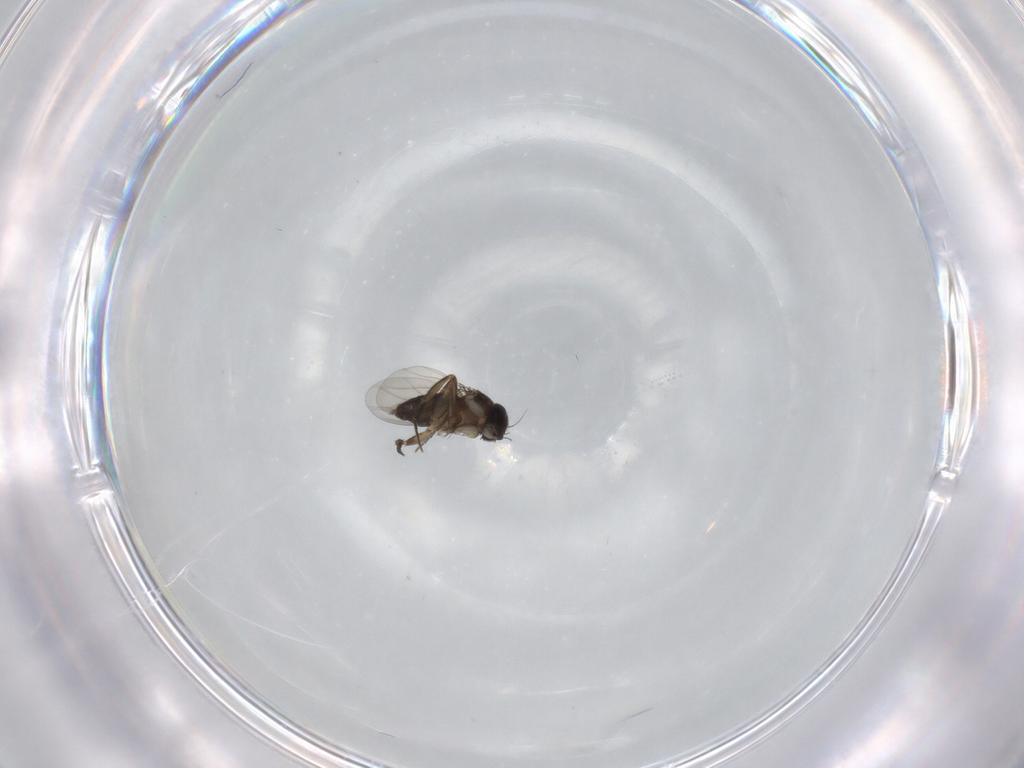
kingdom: Animalia
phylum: Arthropoda
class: Insecta
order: Diptera
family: Phoridae
